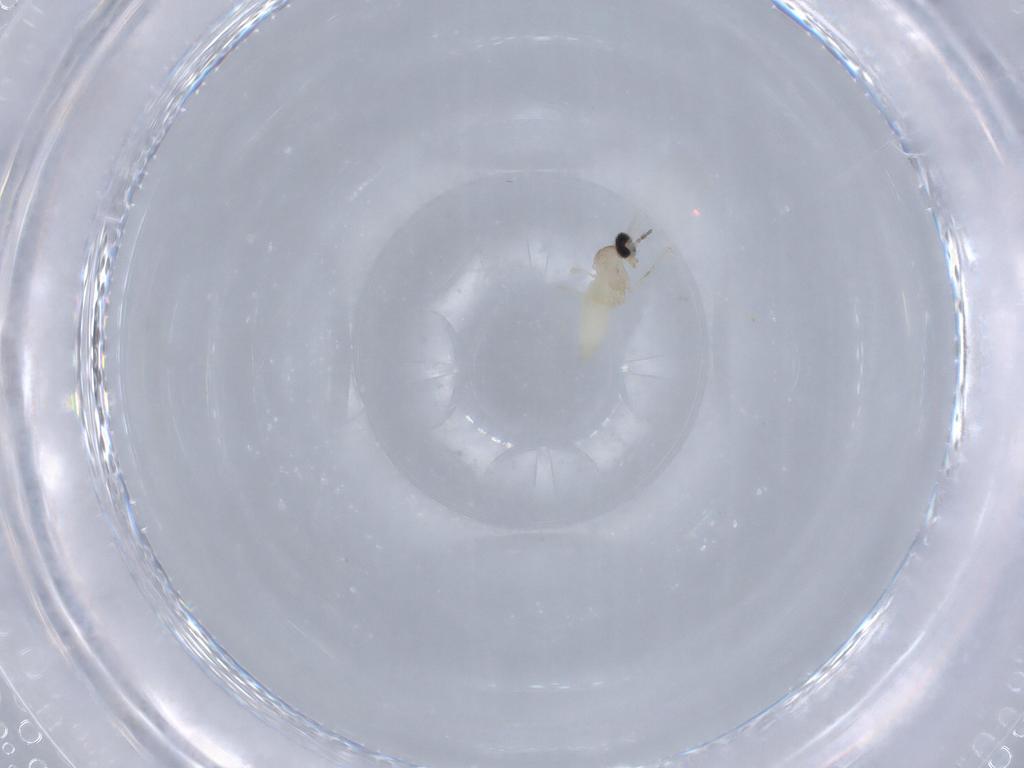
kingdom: Animalia
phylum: Arthropoda
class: Insecta
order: Diptera
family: Cecidomyiidae
